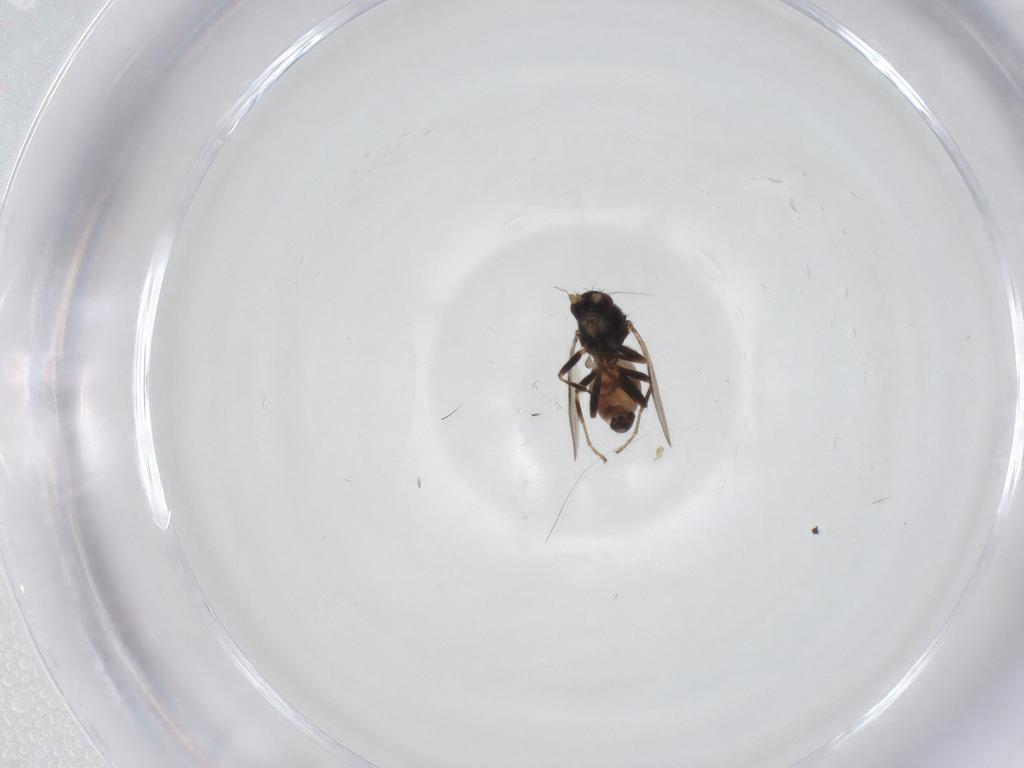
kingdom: Animalia
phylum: Arthropoda
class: Insecta
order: Diptera
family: Sphaeroceridae
